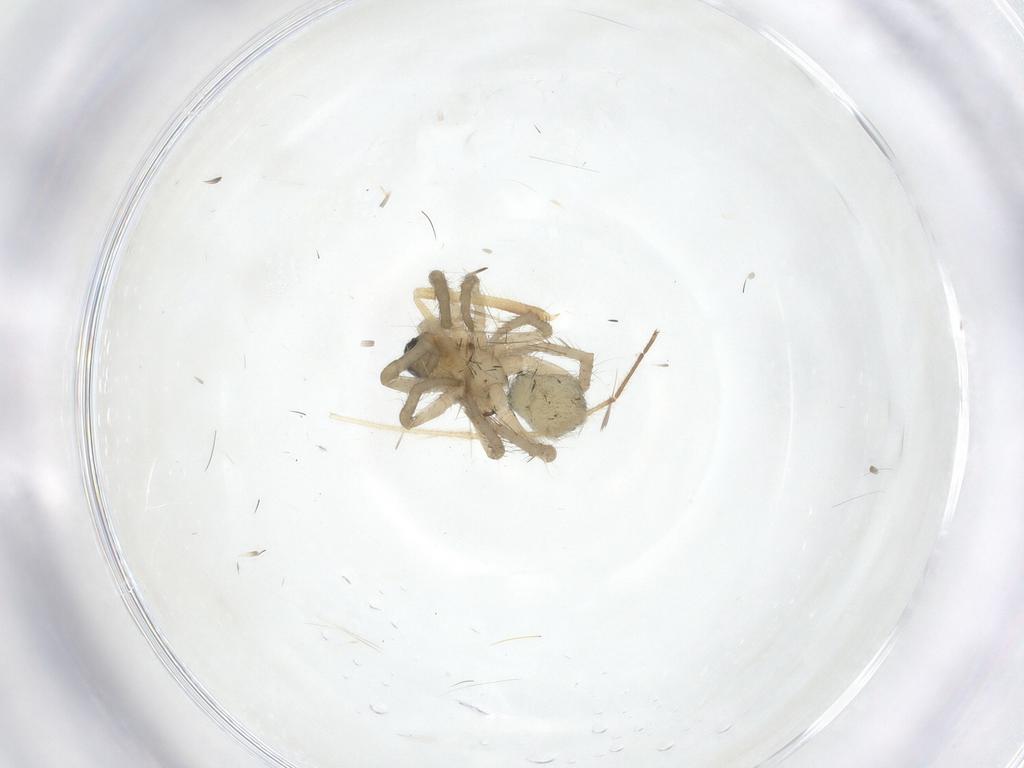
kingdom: Animalia
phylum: Arthropoda
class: Arachnida
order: Araneae
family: Lycosidae
